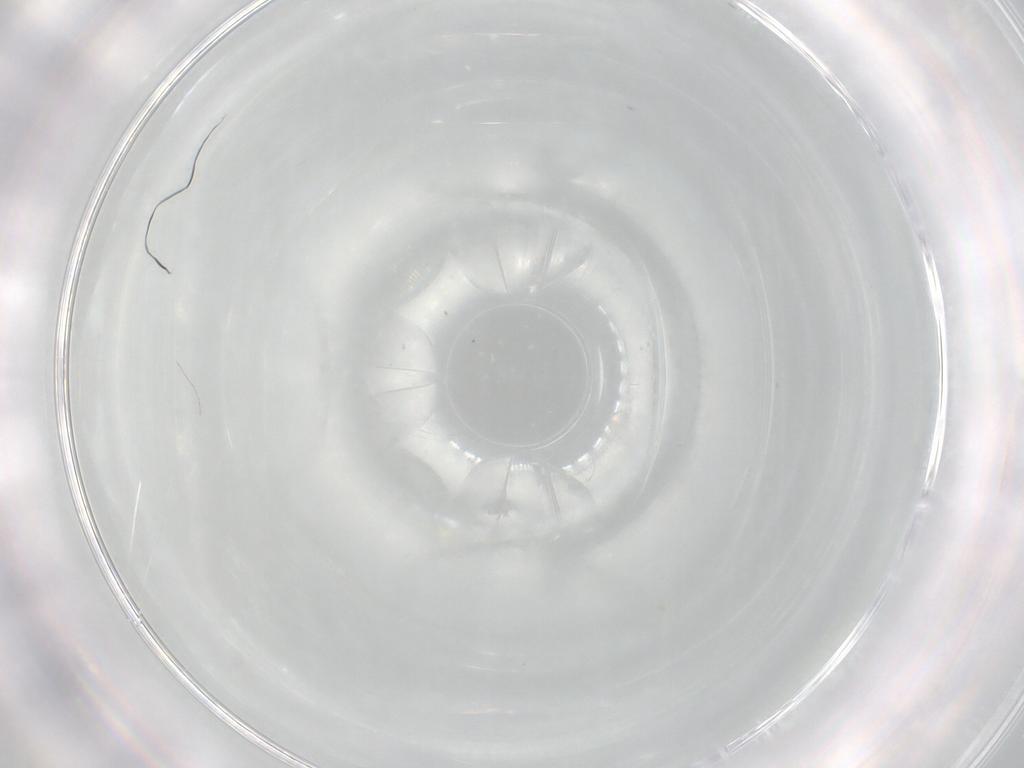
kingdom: Animalia
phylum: Arthropoda
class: Insecta
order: Diptera
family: Cecidomyiidae
